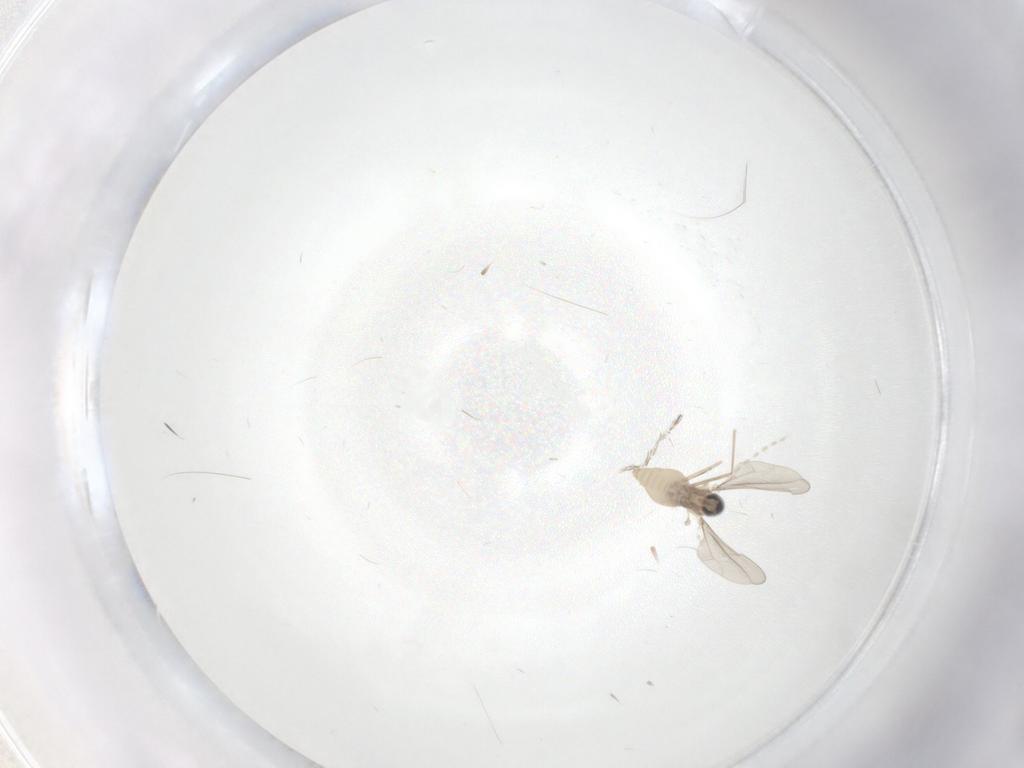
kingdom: Animalia
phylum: Arthropoda
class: Insecta
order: Diptera
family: Cecidomyiidae
